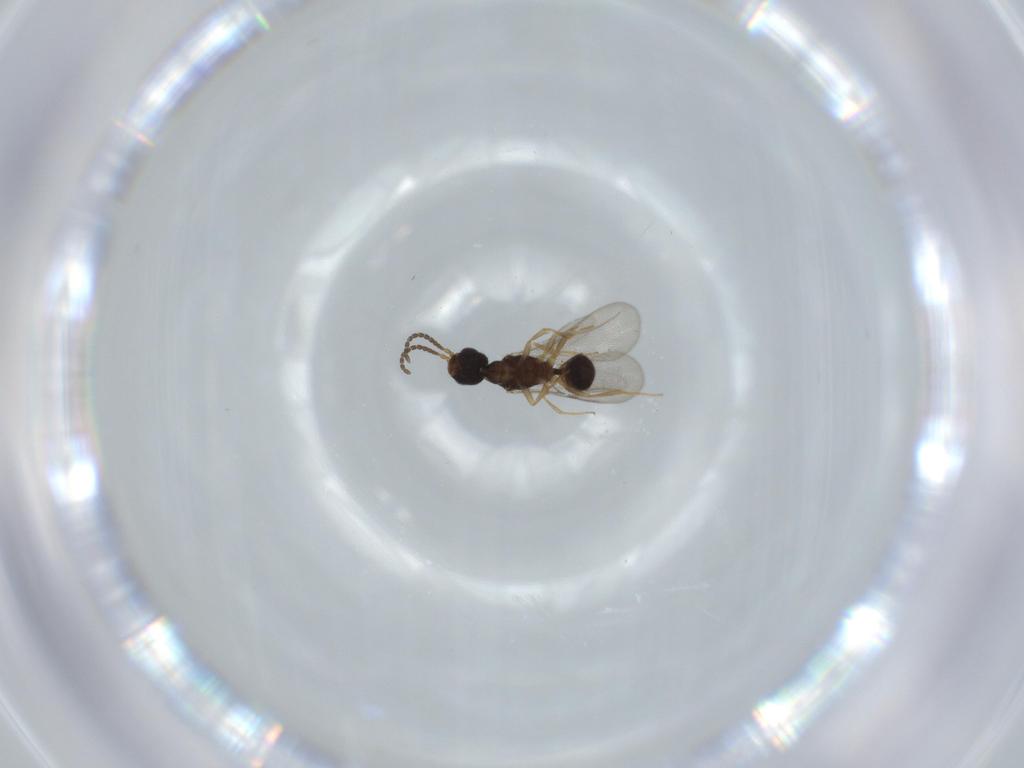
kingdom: Animalia
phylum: Arthropoda
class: Insecta
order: Hymenoptera
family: Bethylidae
